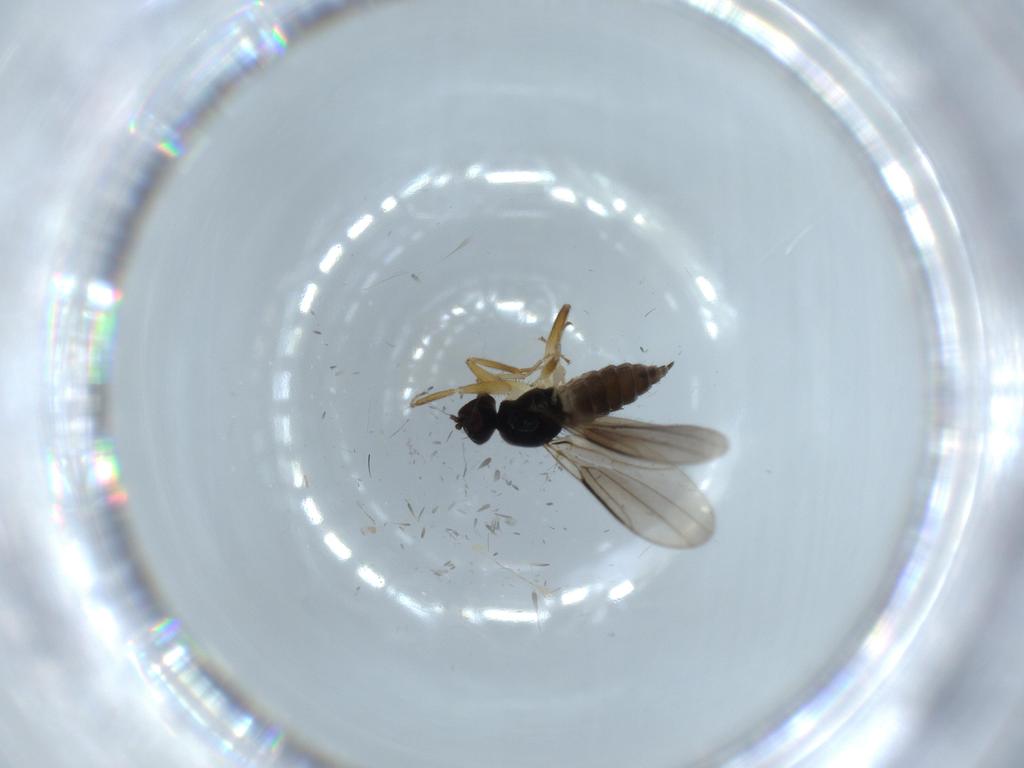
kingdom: Animalia
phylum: Arthropoda
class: Insecta
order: Diptera
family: Hybotidae
